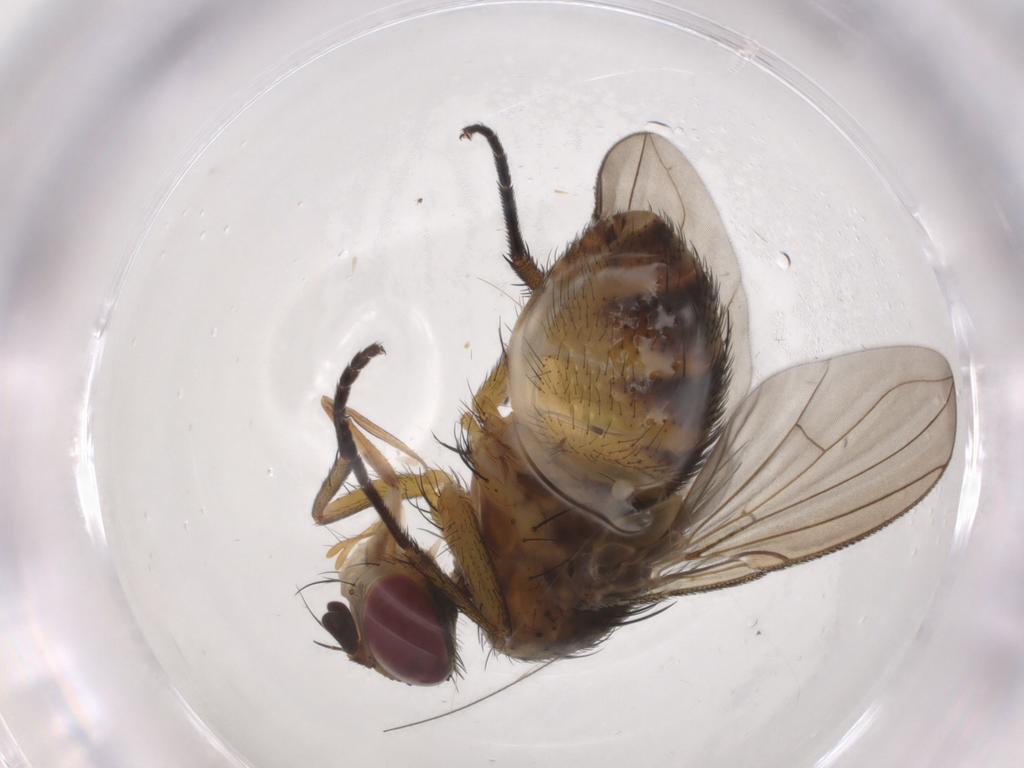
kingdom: Animalia
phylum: Arthropoda
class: Insecta
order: Diptera
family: Tachinidae
